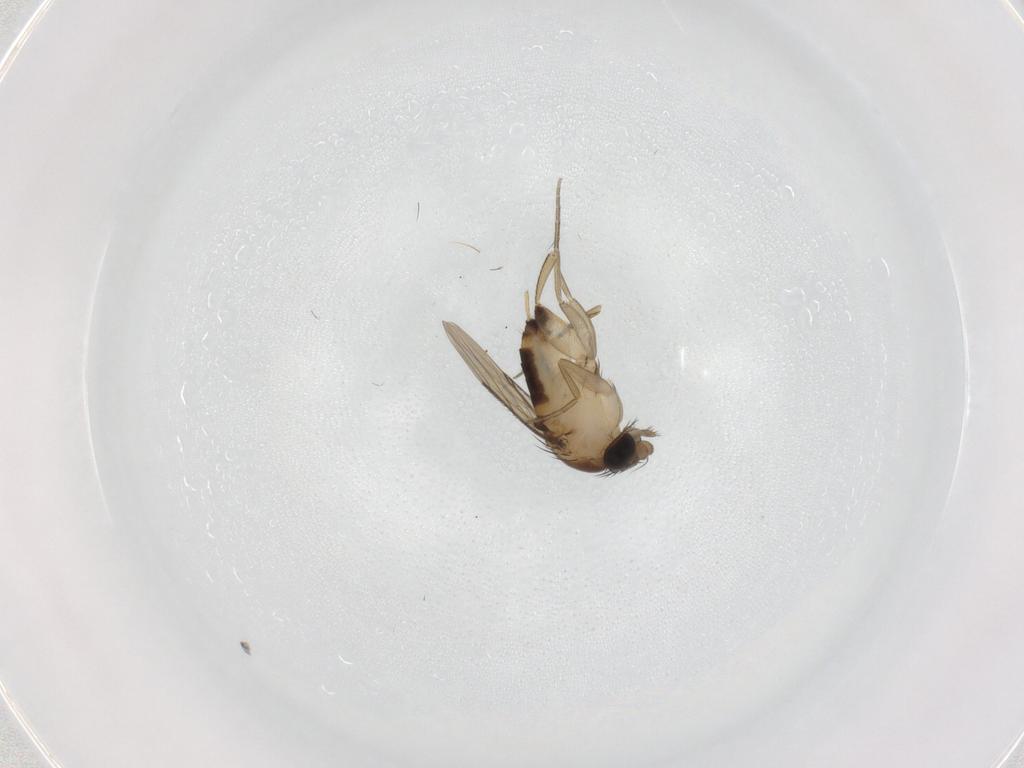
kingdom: Animalia
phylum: Arthropoda
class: Insecta
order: Diptera
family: Phoridae
